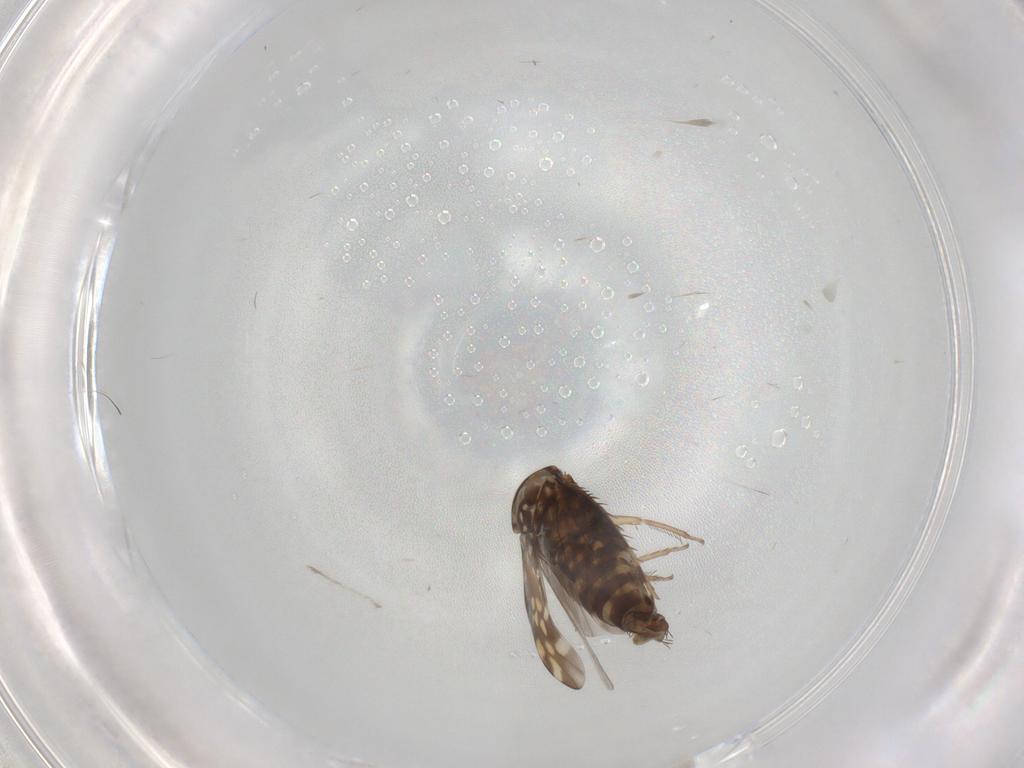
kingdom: Animalia
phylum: Arthropoda
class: Insecta
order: Hemiptera
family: Cicadellidae
